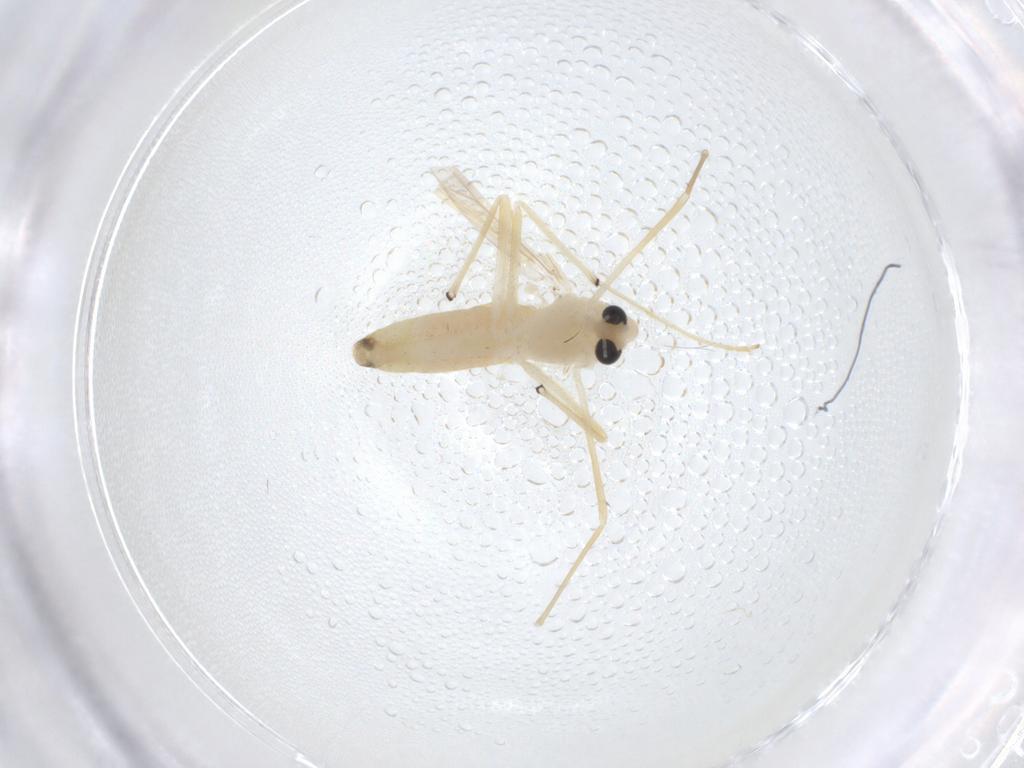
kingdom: Animalia
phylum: Arthropoda
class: Insecta
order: Diptera
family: Chironomidae
